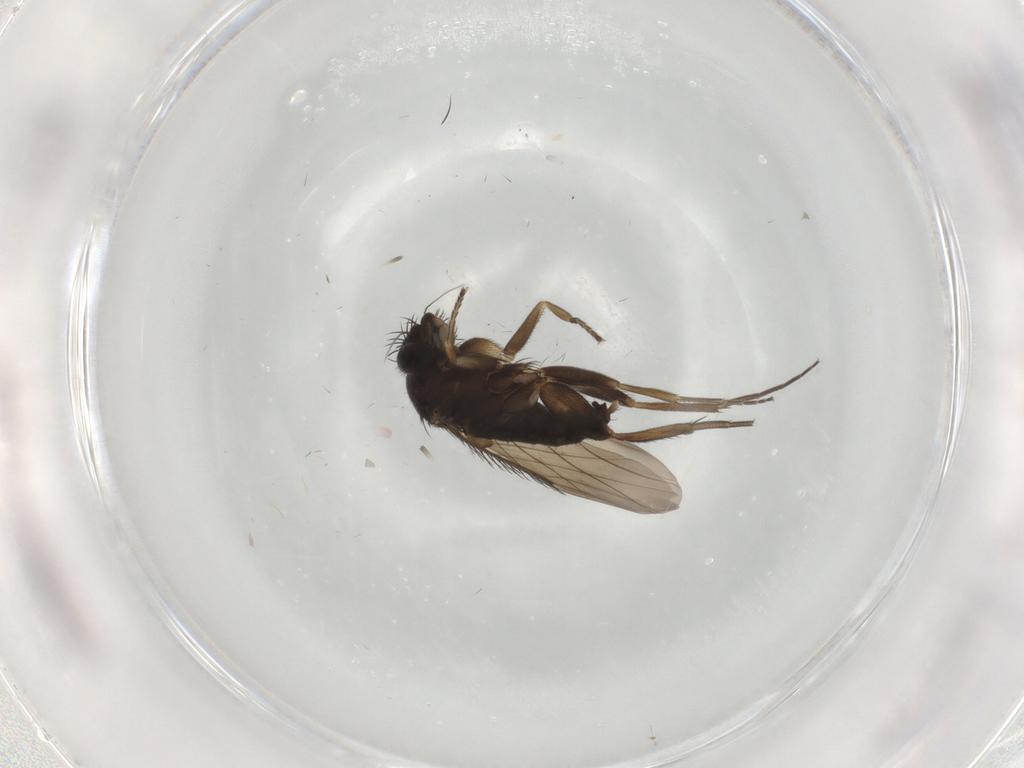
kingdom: Animalia
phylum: Arthropoda
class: Insecta
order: Diptera
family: Phoridae
